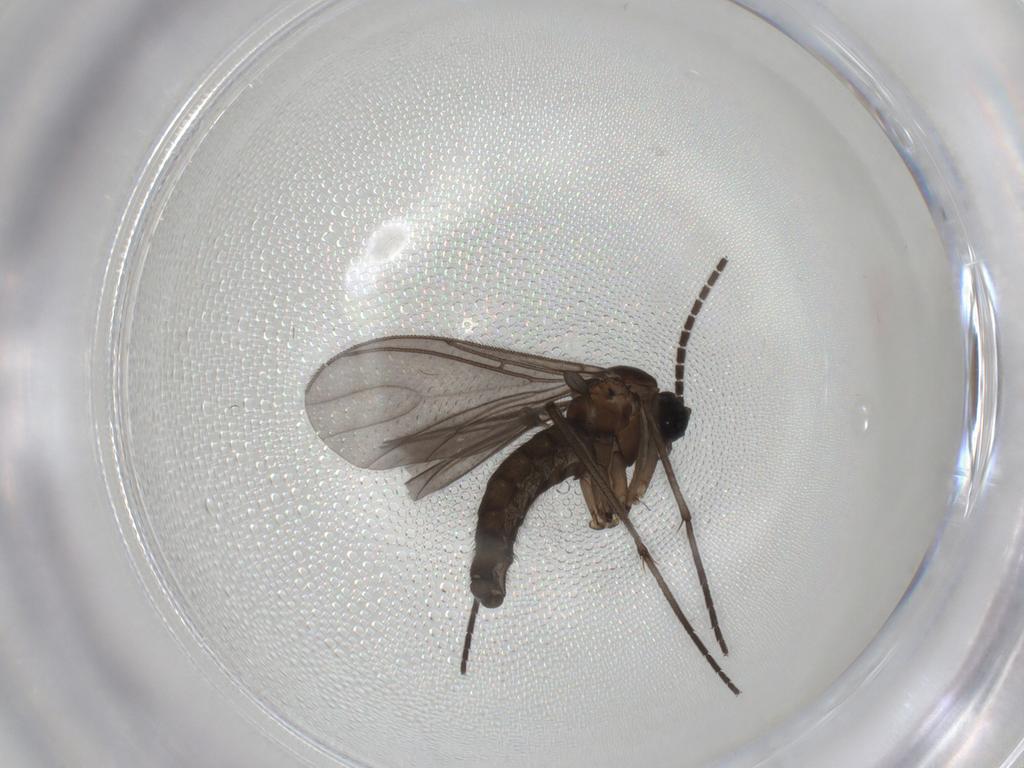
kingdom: Animalia
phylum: Arthropoda
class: Insecta
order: Diptera
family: Sciaridae
